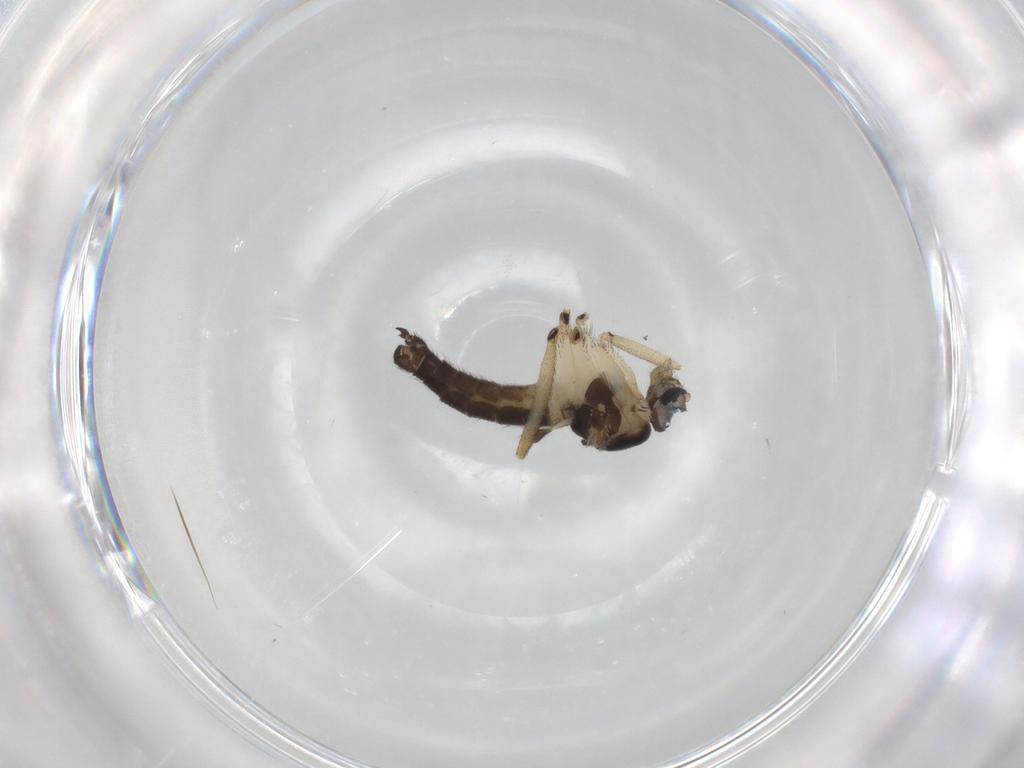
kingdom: Animalia
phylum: Arthropoda
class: Insecta
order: Diptera
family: Sciaridae
